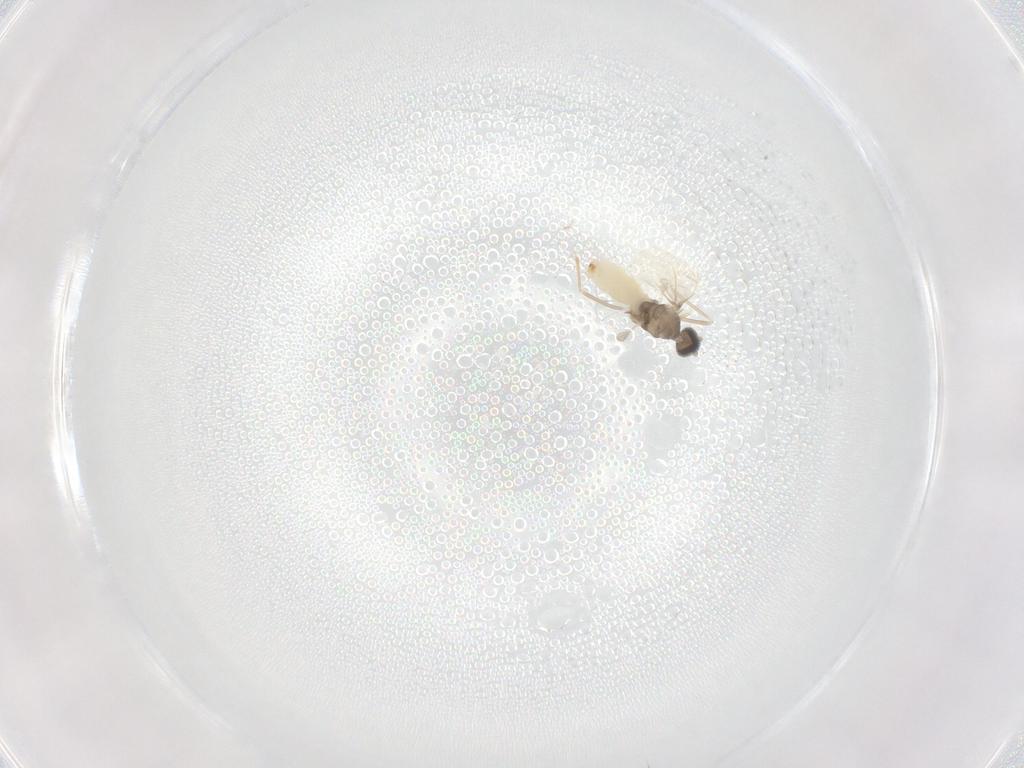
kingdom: Animalia
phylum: Arthropoda
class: Insecta
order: Diptera
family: Cecidomyiidae
